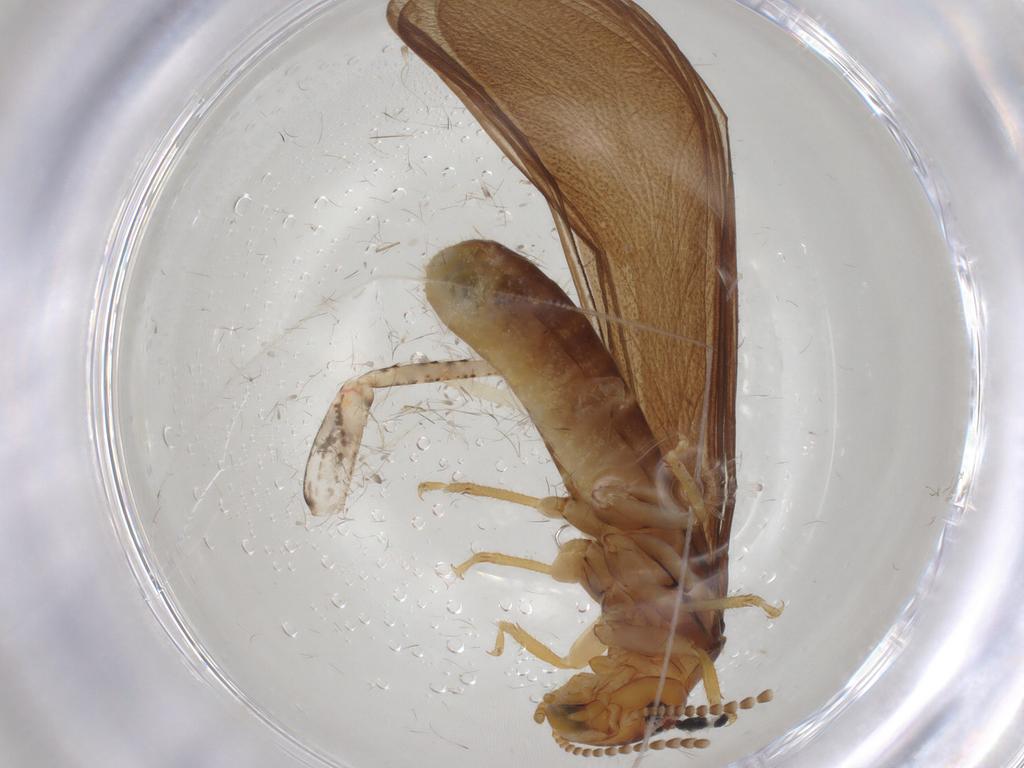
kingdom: Animalia
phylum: Arthropoda
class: Insecta
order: Blattodea
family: Kalotermitidae
